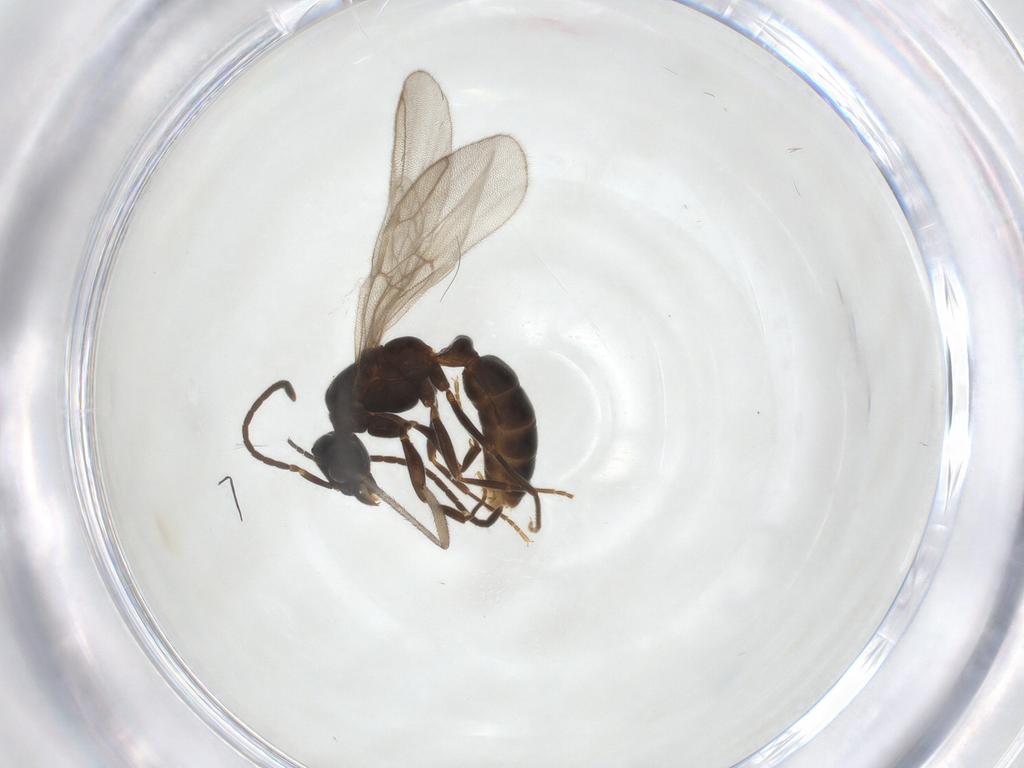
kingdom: Animalia
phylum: Arthropoda
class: Insecta
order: Hymenoptera
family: Formicidae
